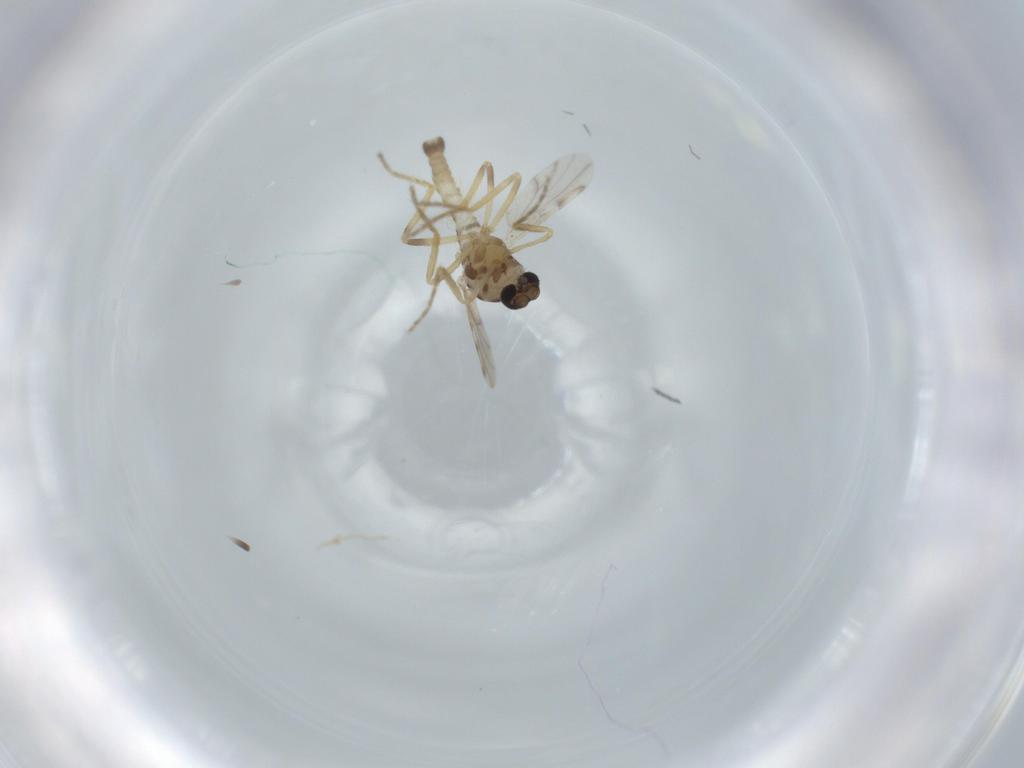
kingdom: Animalia
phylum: Arthropoda
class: Insecta
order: Diptera
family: Ceratopogonidae
